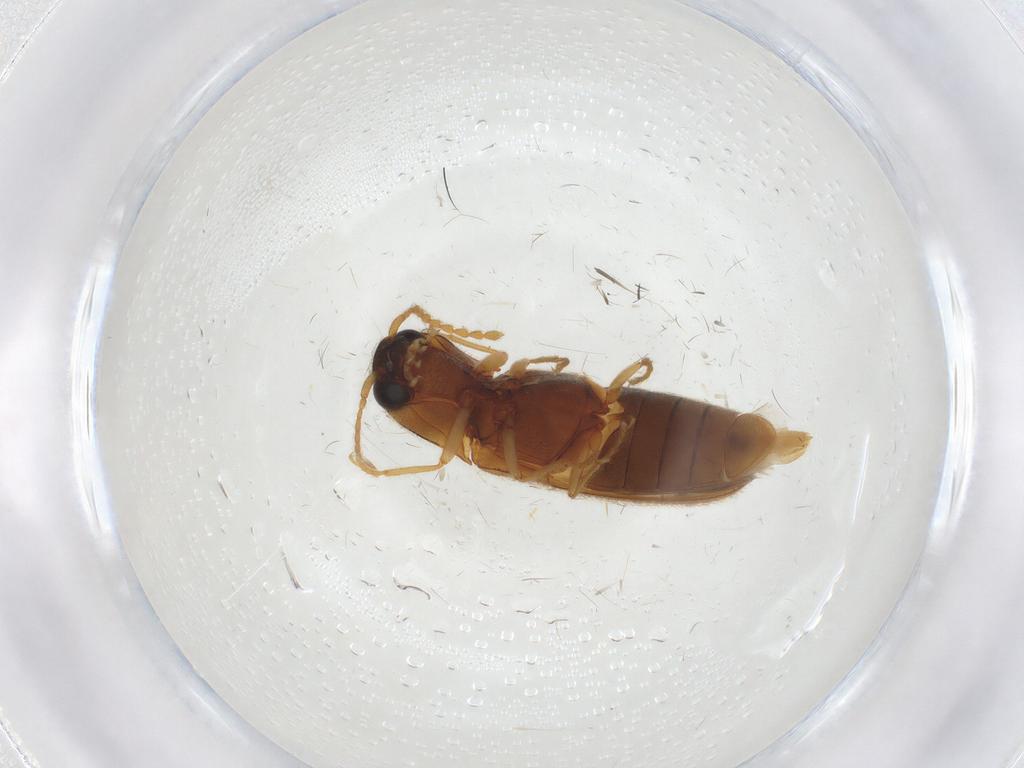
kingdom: Animalia
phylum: Arthropoda
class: Insecta
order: Coleoptera
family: Elateridae
